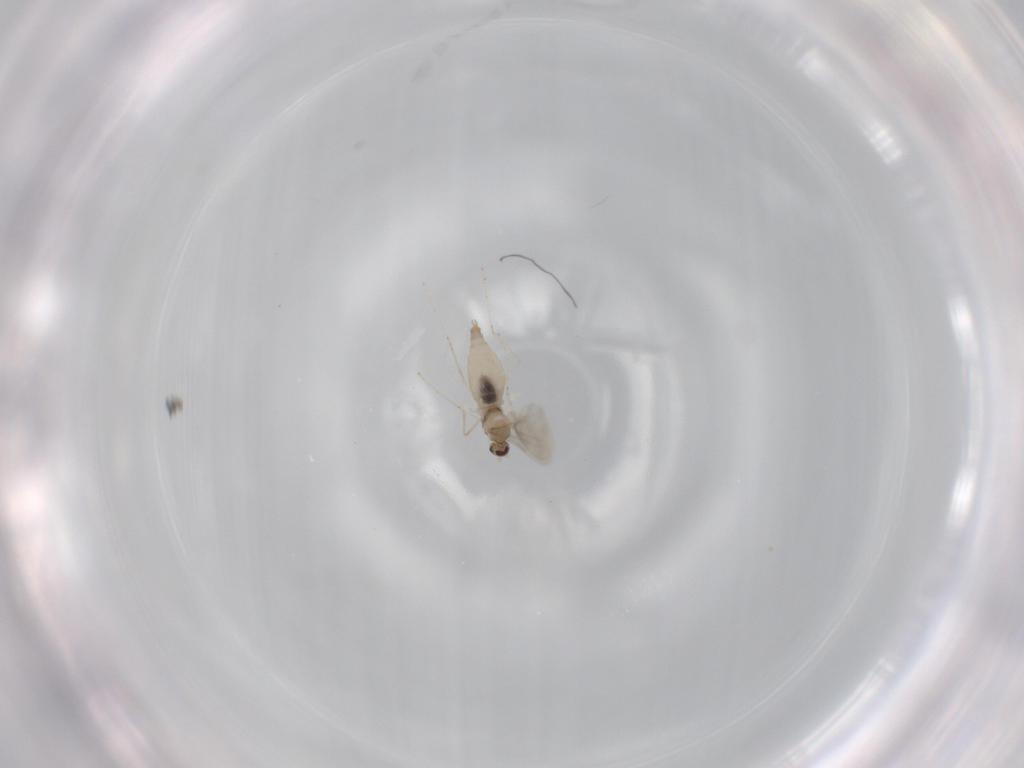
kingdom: Animalia
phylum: Arthropoda
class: Insecta
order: Diptera
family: Cecidomyiidae
